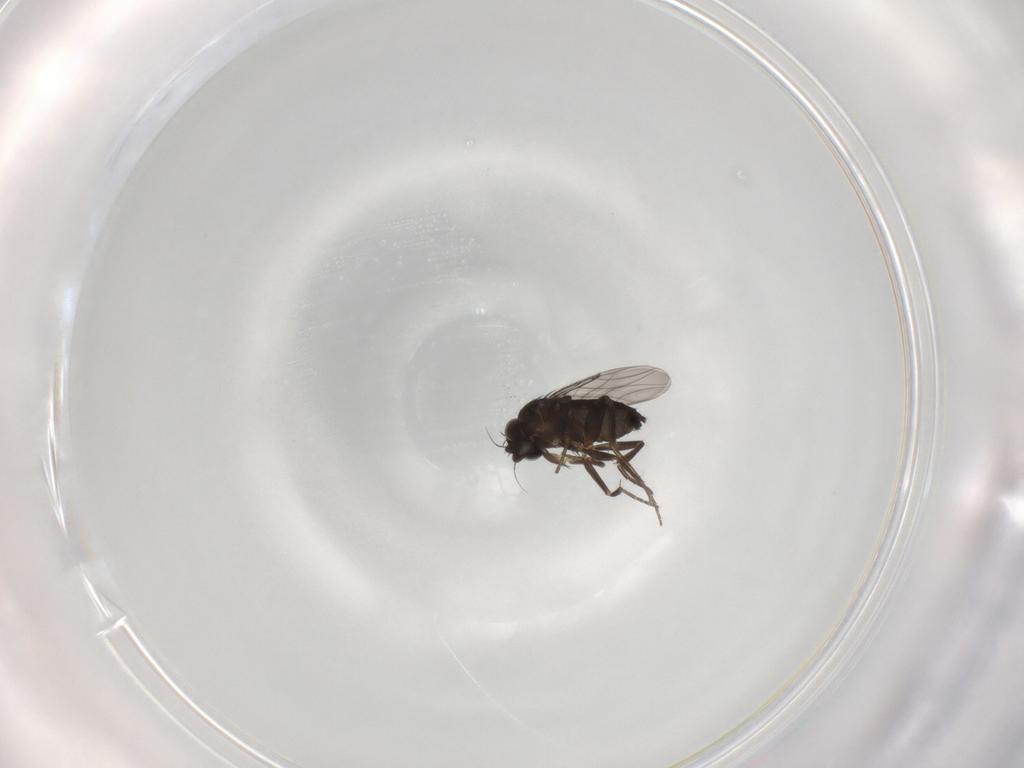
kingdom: Animalia
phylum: Arthropoda
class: Insecta
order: Diptera
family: Phoridae
